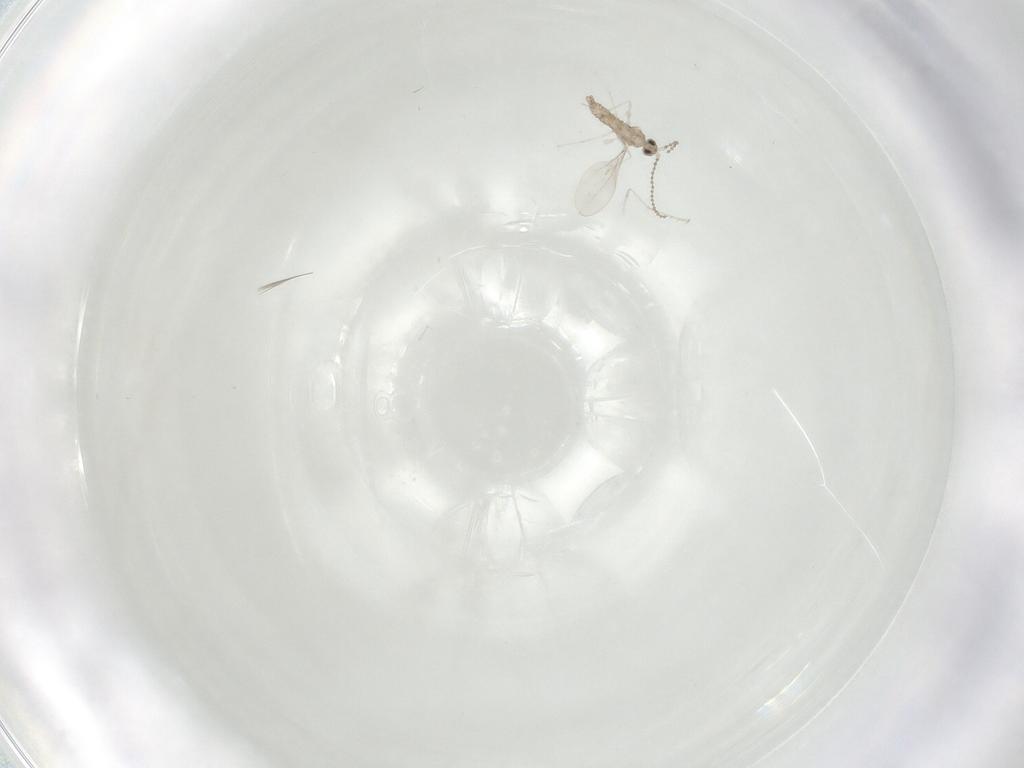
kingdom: Animalia
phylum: Arthropoda
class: Insecta
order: Diptera
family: Cecidomyiidae
